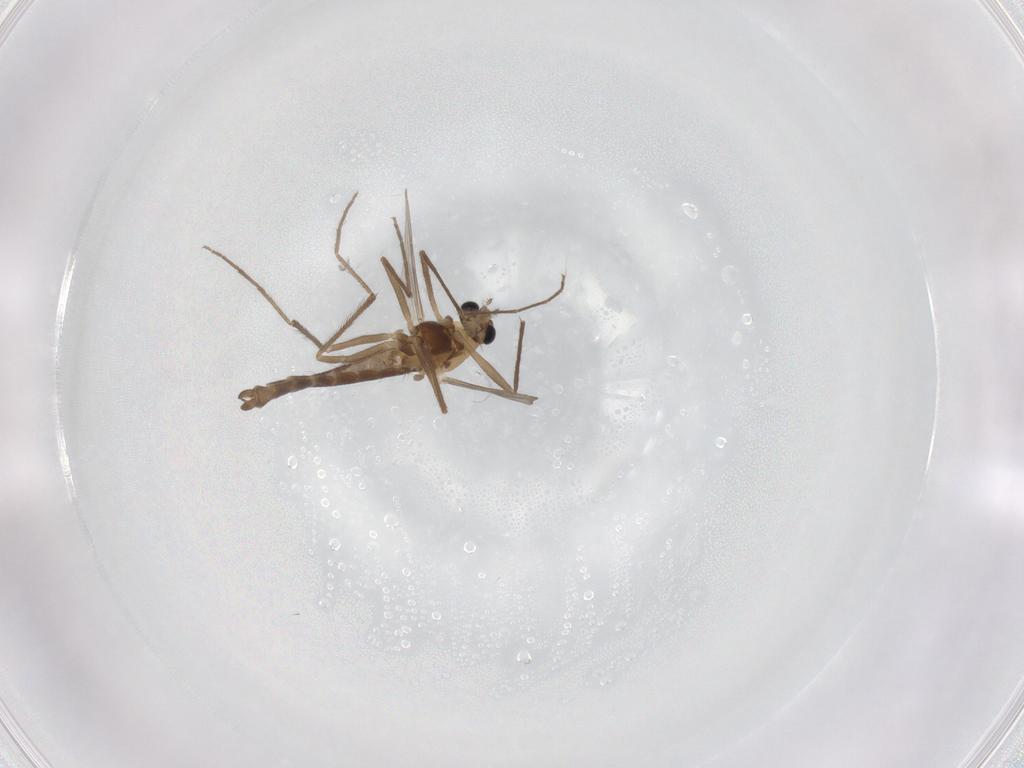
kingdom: Animalia
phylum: Arthropoda
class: Insecta
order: Diptera
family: Chironomidae
